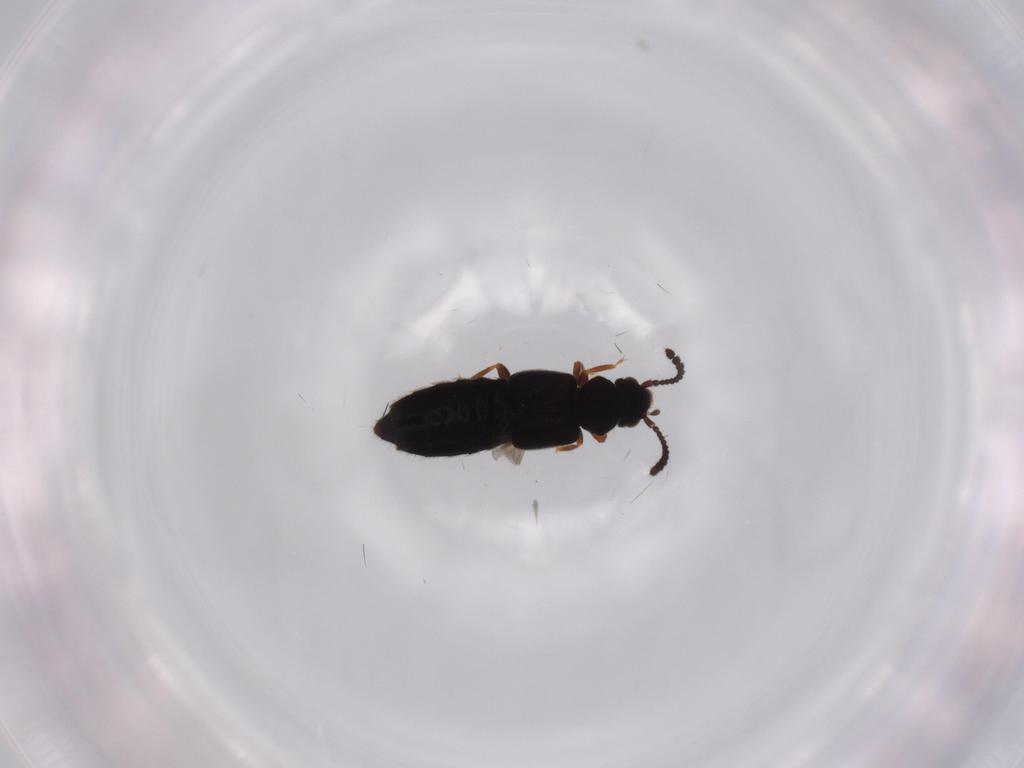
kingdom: Animalia
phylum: Arthropoda
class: Insecta
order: Coleoptera
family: Staphylinidae
